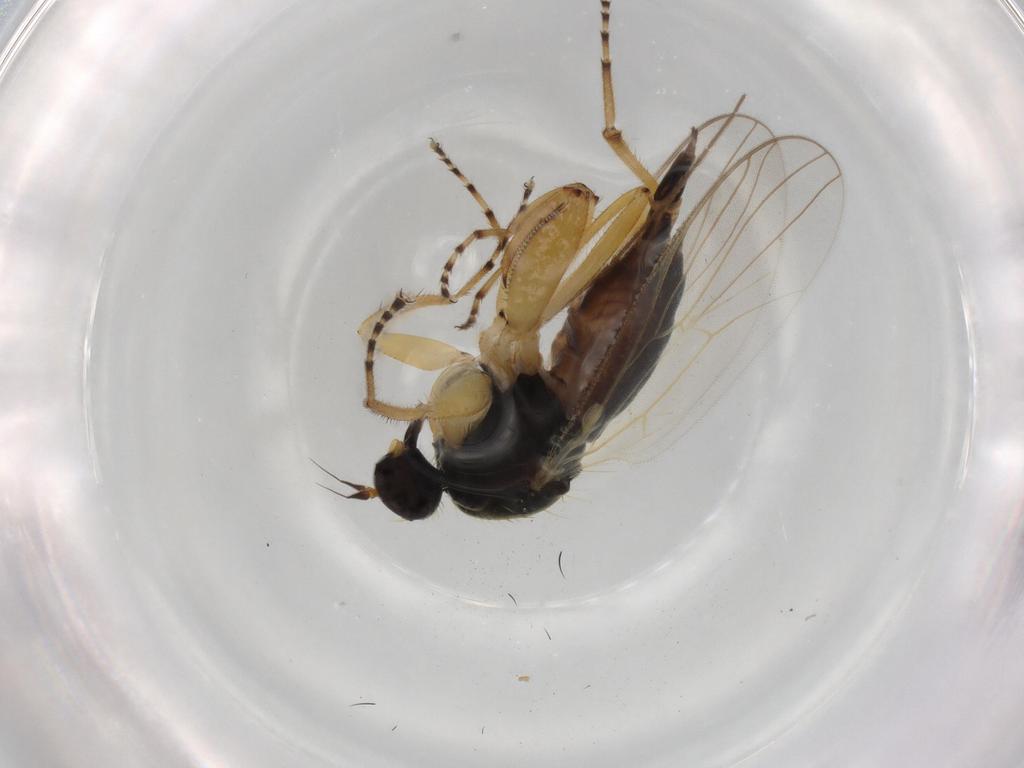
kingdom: Animalia
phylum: Arthropoda
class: Insecta
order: Diptera
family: Hybotidae
